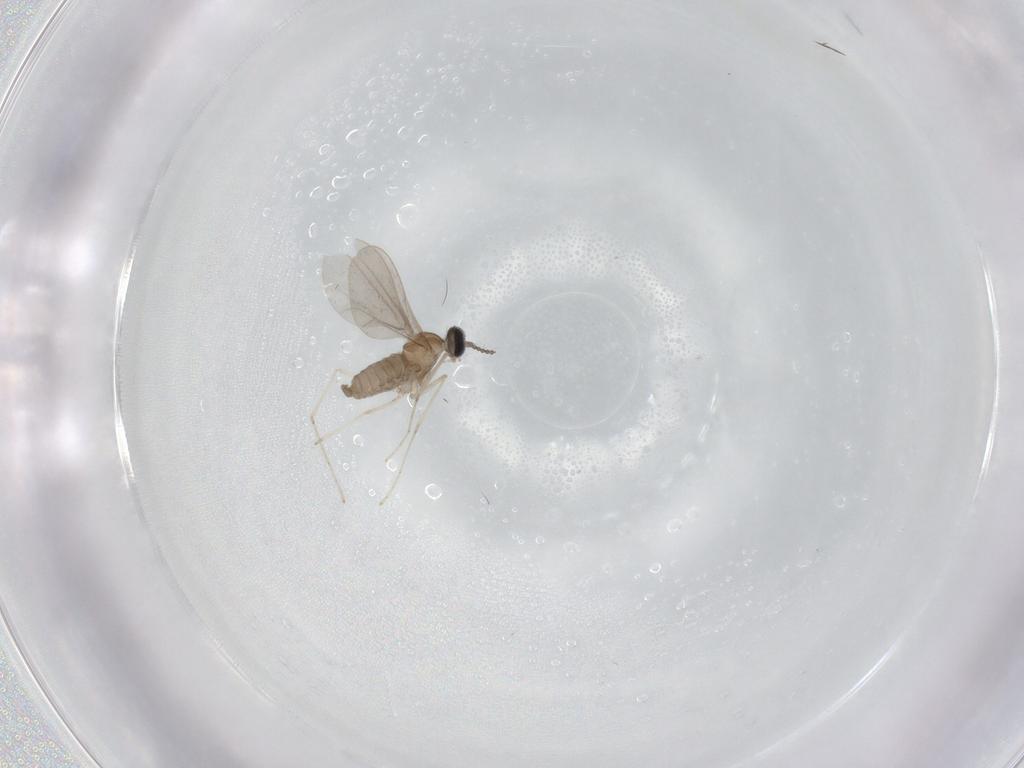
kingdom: Animalia
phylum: Arthropoda
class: Insecta
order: Diptera
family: Cecidomyiidae
